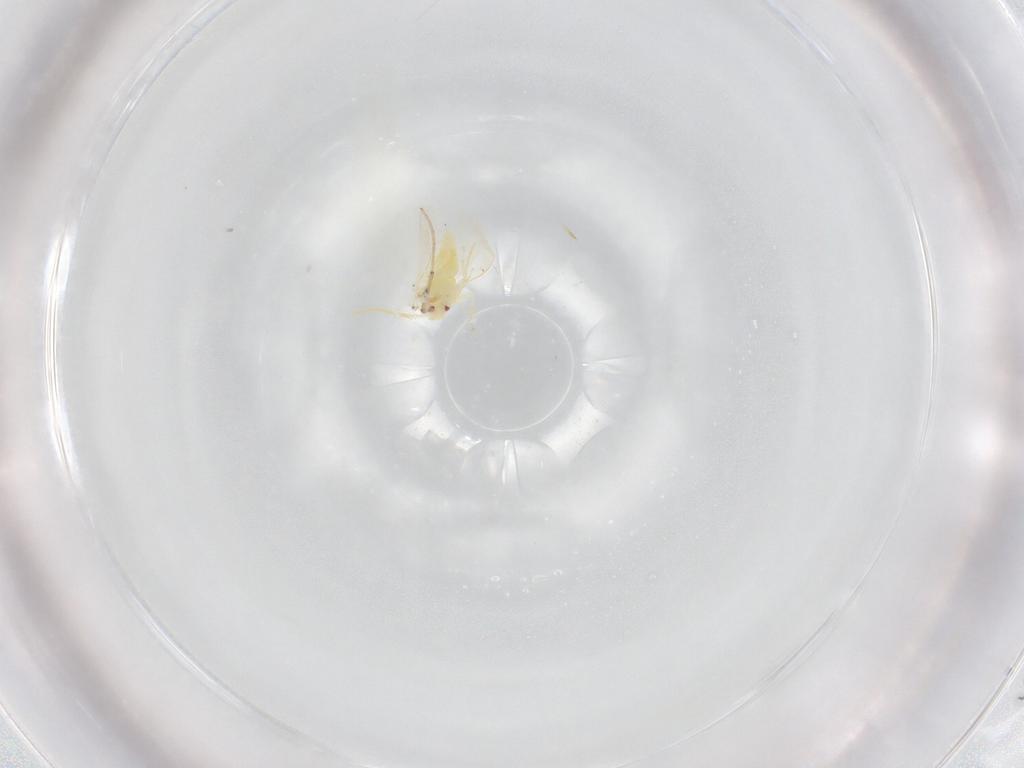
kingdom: Animalia
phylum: Arthropoda
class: Insecta
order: Hemiptera
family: Aleyrodidae
